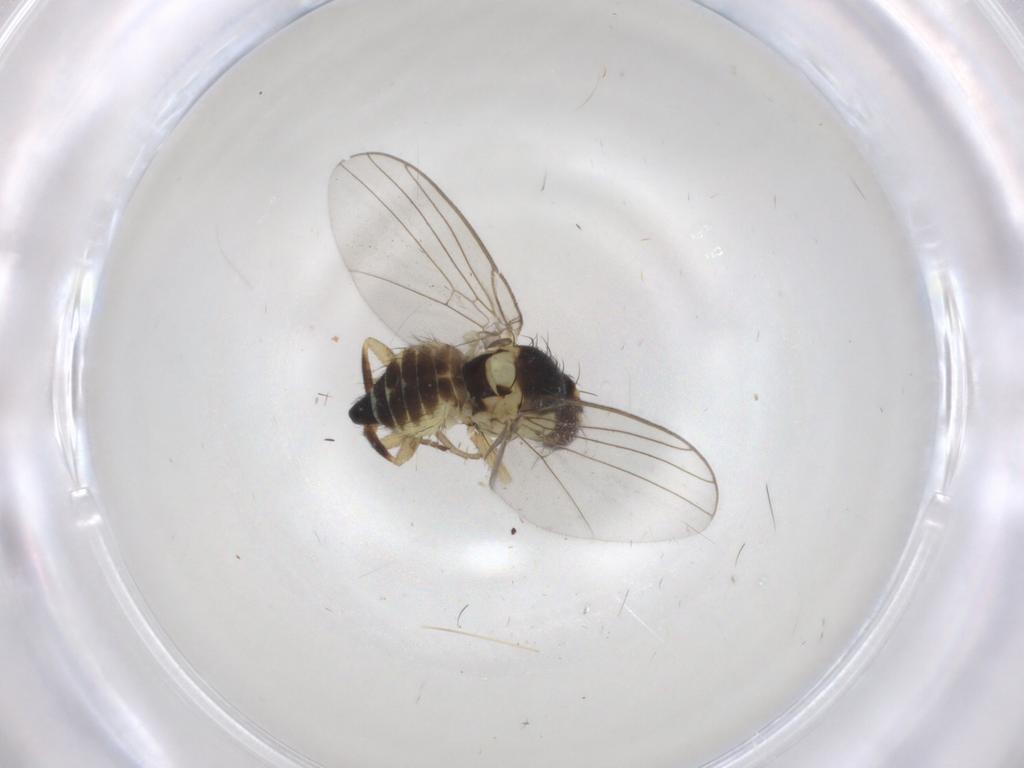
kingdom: Animalia
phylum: Arthropoda
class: Insecta
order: Diptera
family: Agromyzidae
